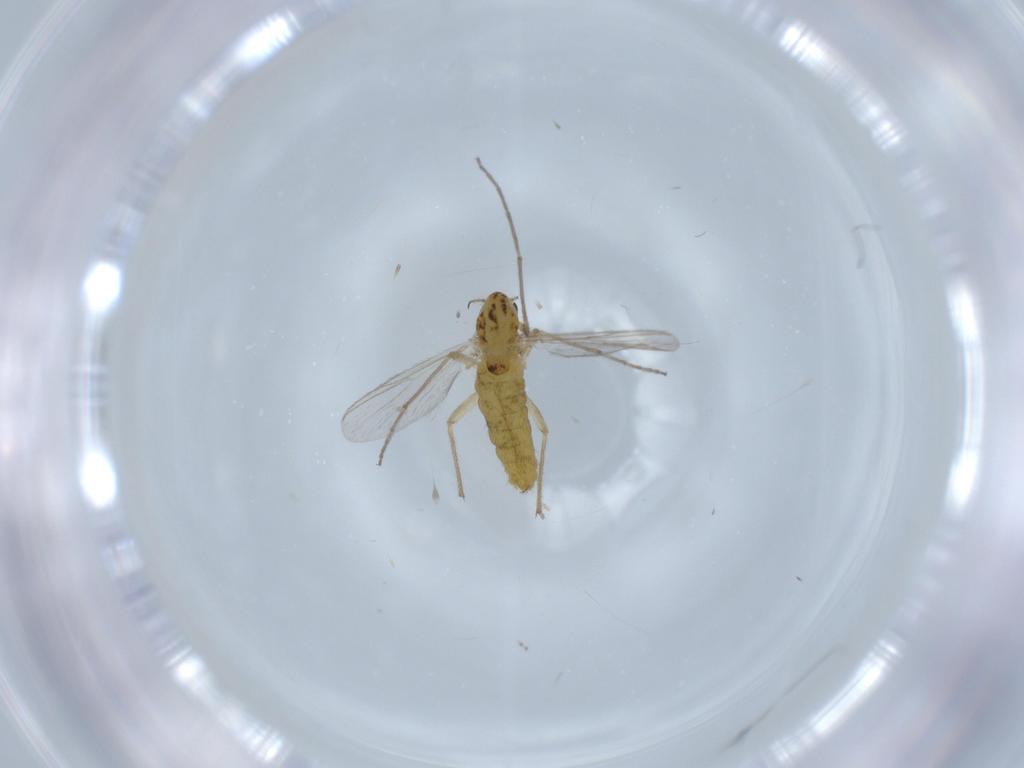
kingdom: Animalia
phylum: Arthropoda
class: Insecta
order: Diptera
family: Chironomidae
